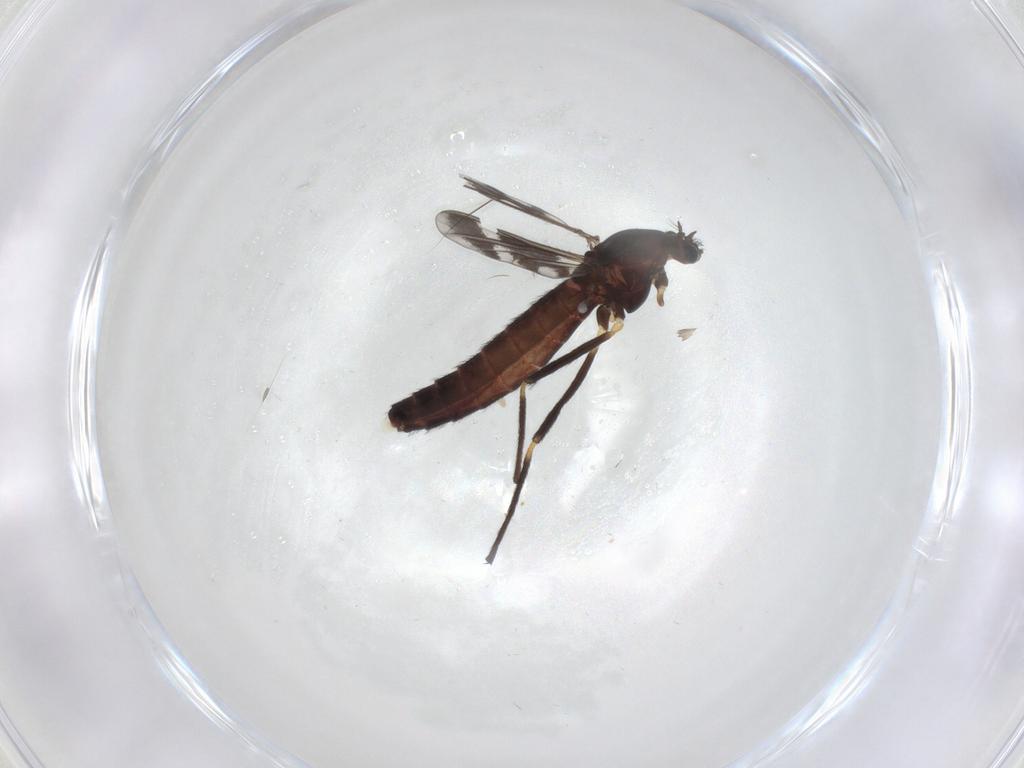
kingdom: Animalia
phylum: Arthropoda
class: Insecta
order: Diptera
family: Chironomidae
